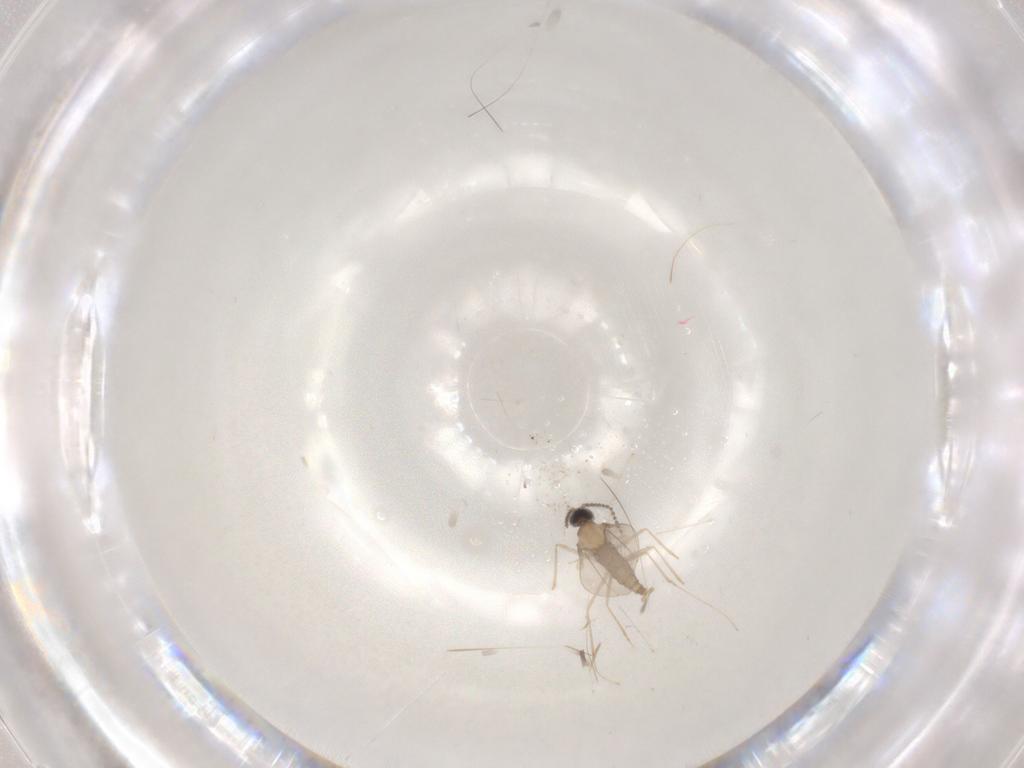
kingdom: Animalia
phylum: Arthropoda
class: Insecta
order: Diptera
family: Cecidomyiidae
